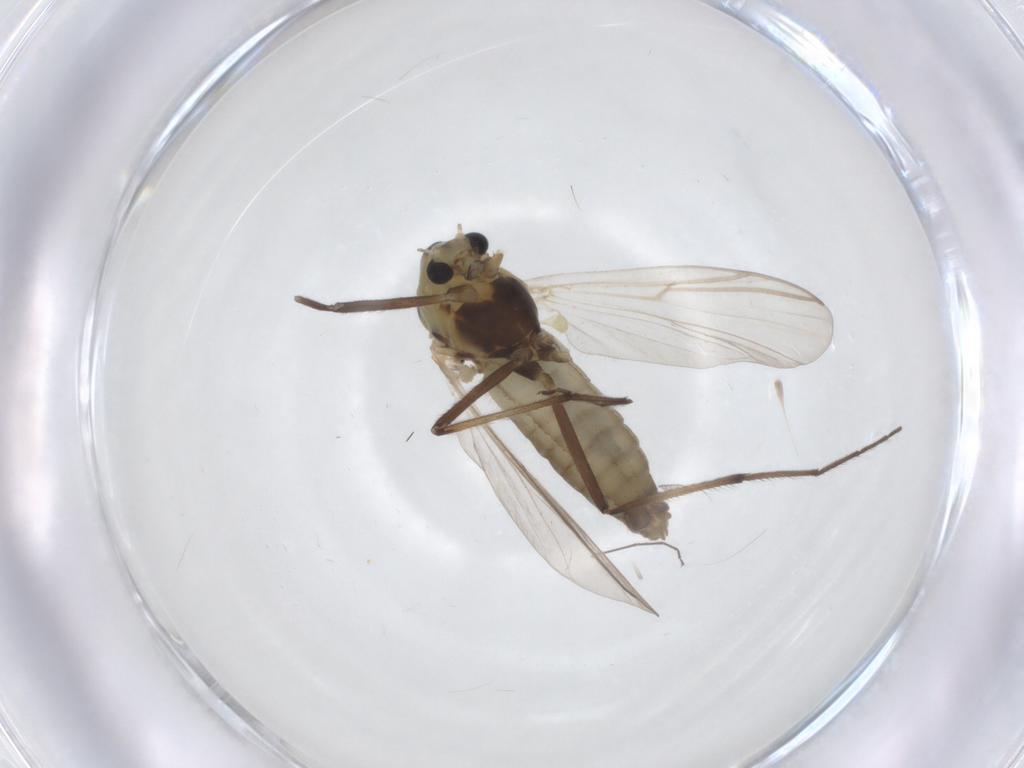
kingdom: Animalia
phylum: Arthropoda
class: Insecta
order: Diptera
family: Chironomidae
